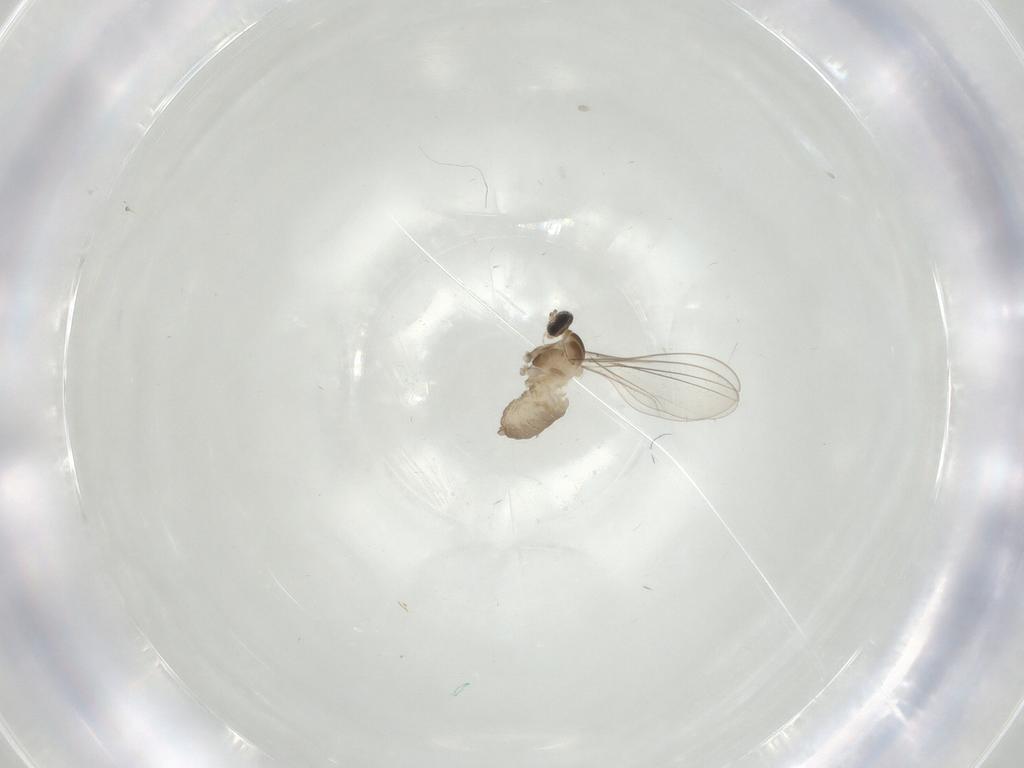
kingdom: Animalia
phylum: Arthropoda
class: Insecta
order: Diptera
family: Cecidomyiidae
